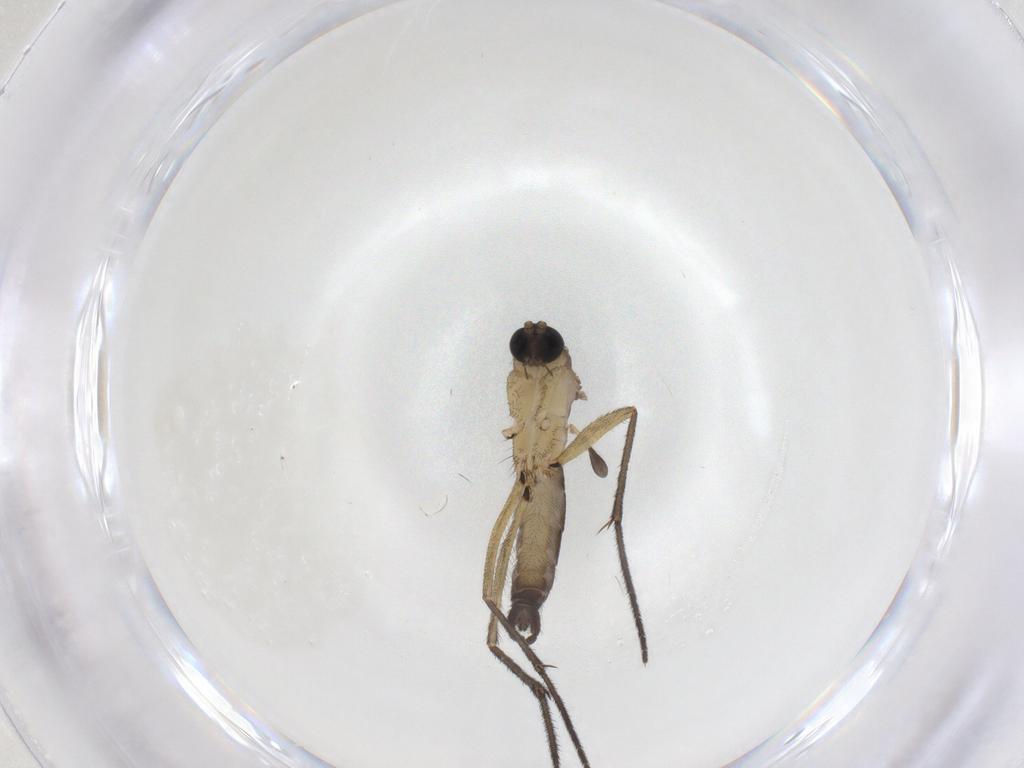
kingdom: Animalia
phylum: Arthropoda
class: Insecta
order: Diptera
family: Sciaridae
